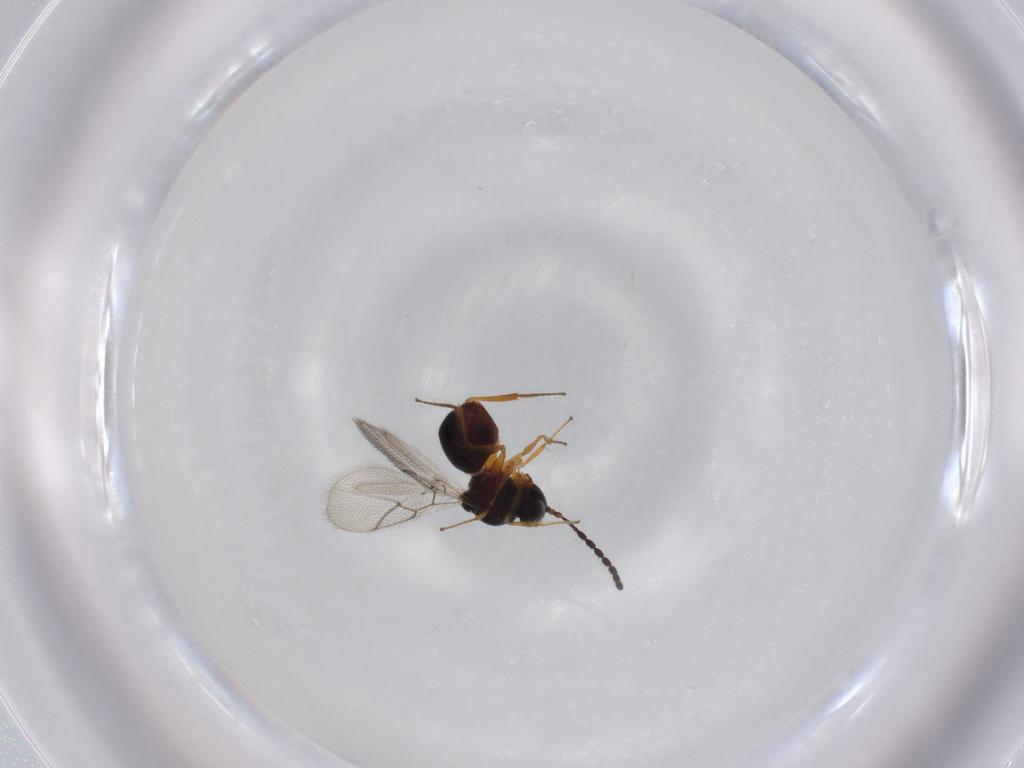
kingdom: Animalia
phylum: Arthropoda
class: Insecta
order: Hymenoptera
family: Figitidae
